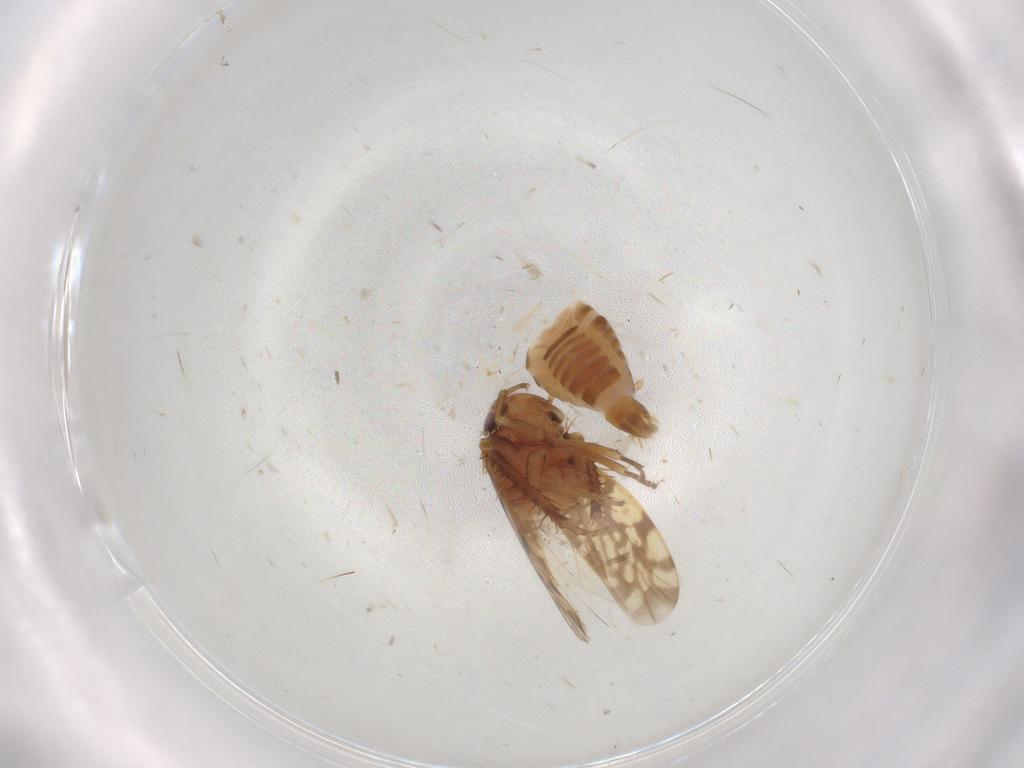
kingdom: Animalia
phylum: Arthropoda
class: Insecta
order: Hemiptera
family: Cicadellidae
